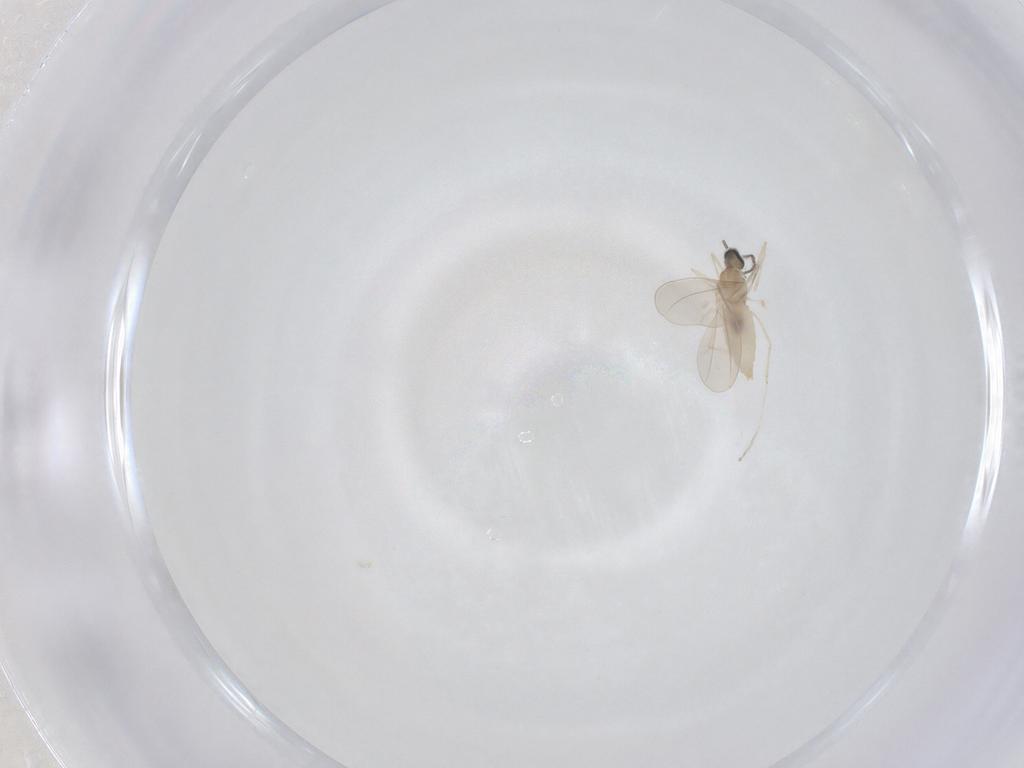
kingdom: Animalia
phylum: Arthropoda
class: Insecta
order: Diptera
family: Sciaridae
